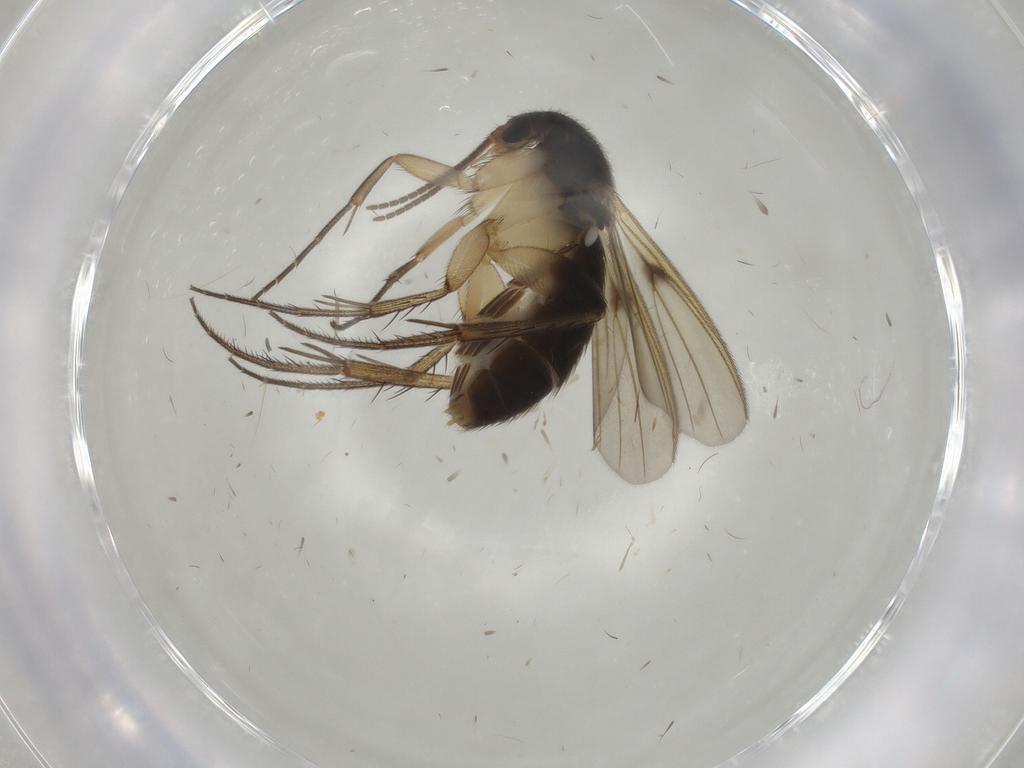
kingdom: Animalia
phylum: Arthropoda
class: Insecta
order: Diptera
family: Mycetophilidae
